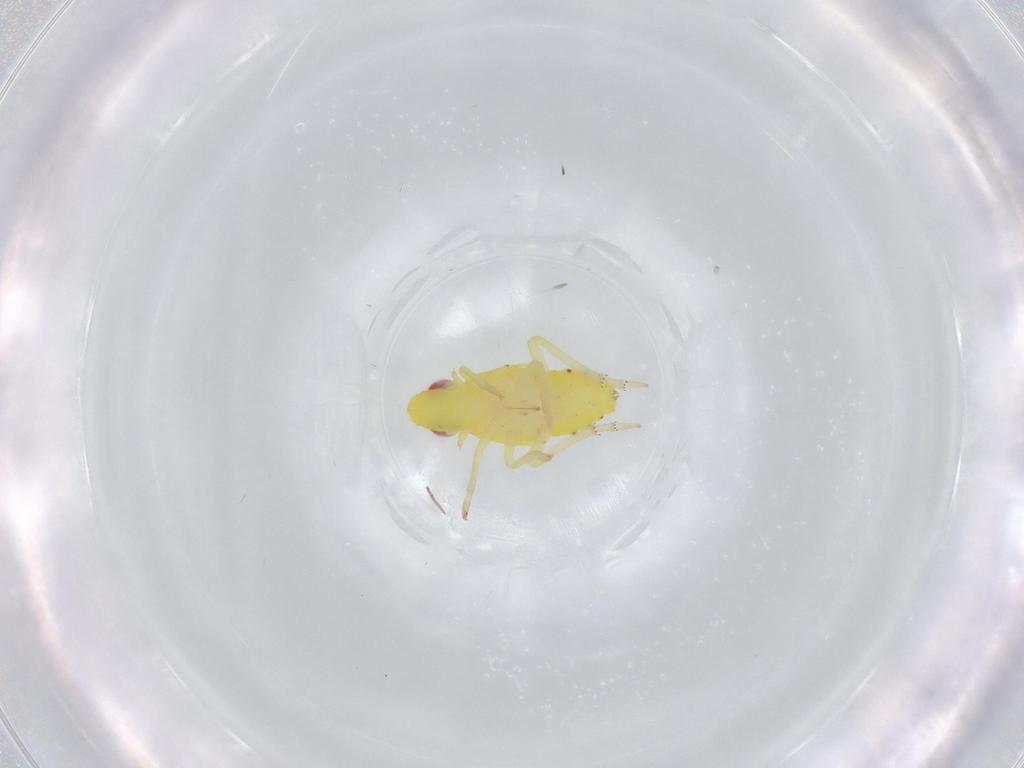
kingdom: Animalia
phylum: Arthropoda
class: Insecta
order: Hemiptera
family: Tropiduchidae
